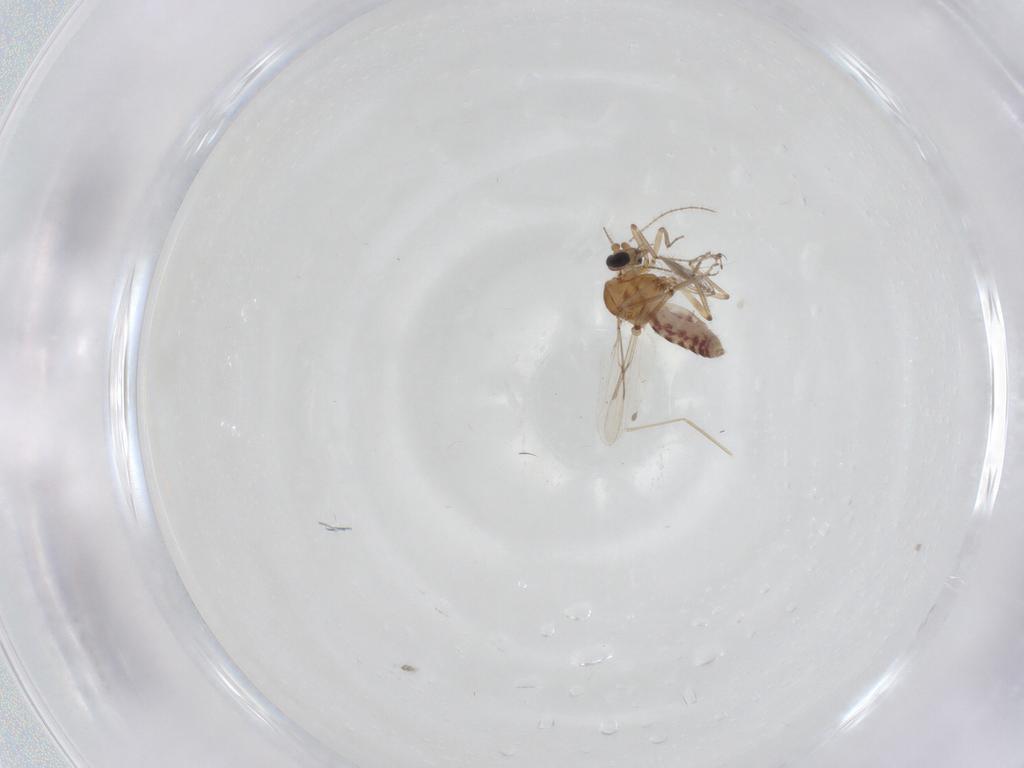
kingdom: Animalia
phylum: Arthropoda
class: Insecta
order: Diptera
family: Ceratopogonidae
